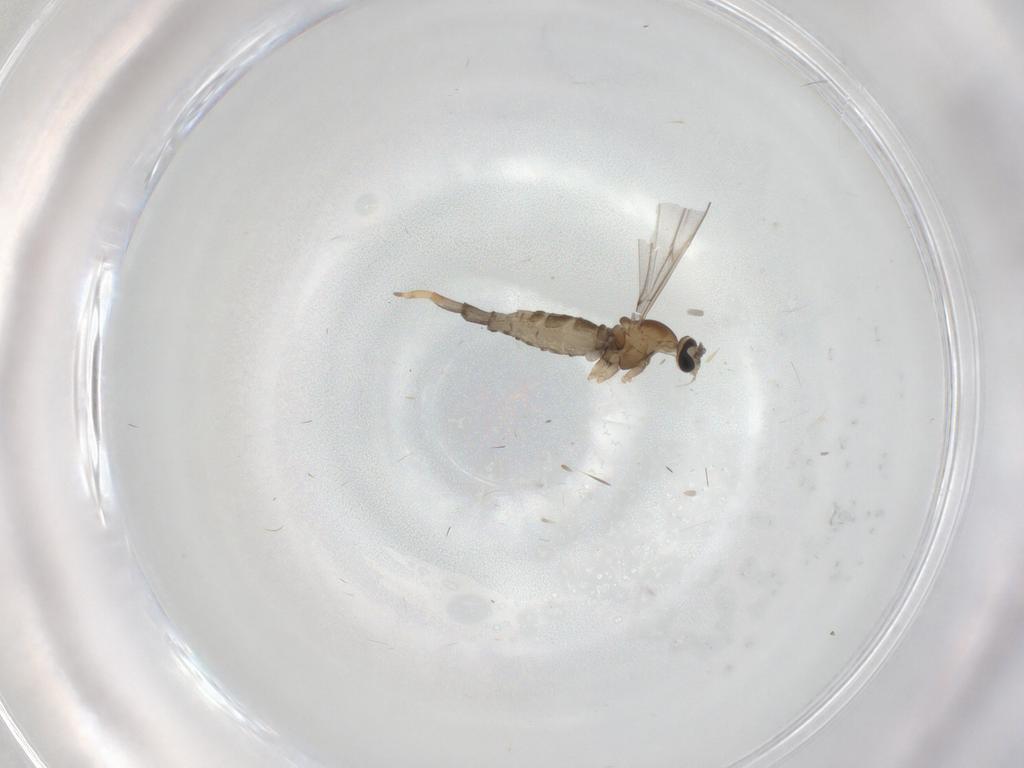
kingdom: Animalia
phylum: Arthropoda
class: Insecta
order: Diptera
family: Cecidomyiidae
